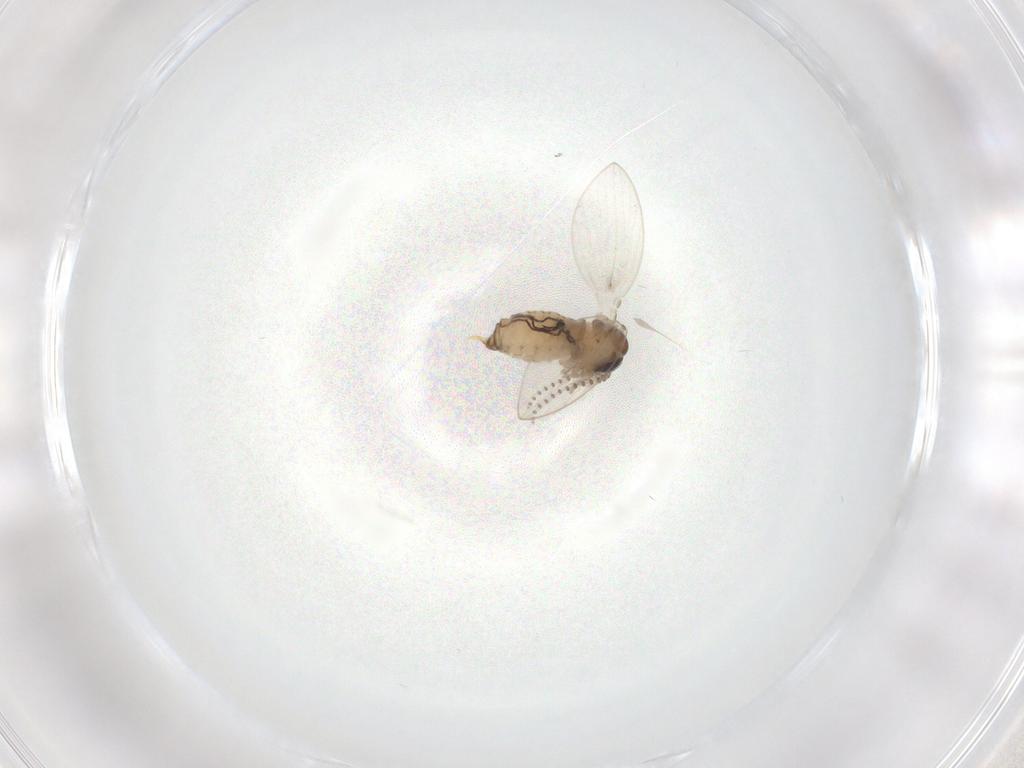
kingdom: Animalia
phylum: Arthropoda
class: Insecta
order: Diptera
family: Psychodidae
